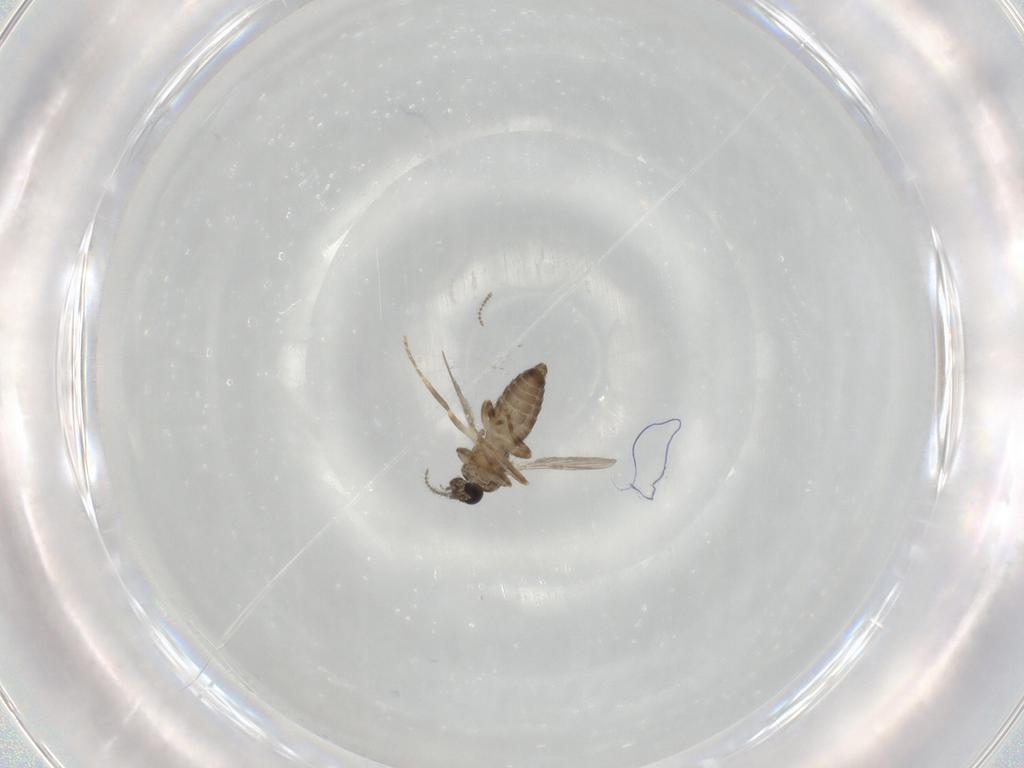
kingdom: Animalia
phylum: Arthropoda
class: Insecta
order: Diptera
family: Ceratopogonidae
